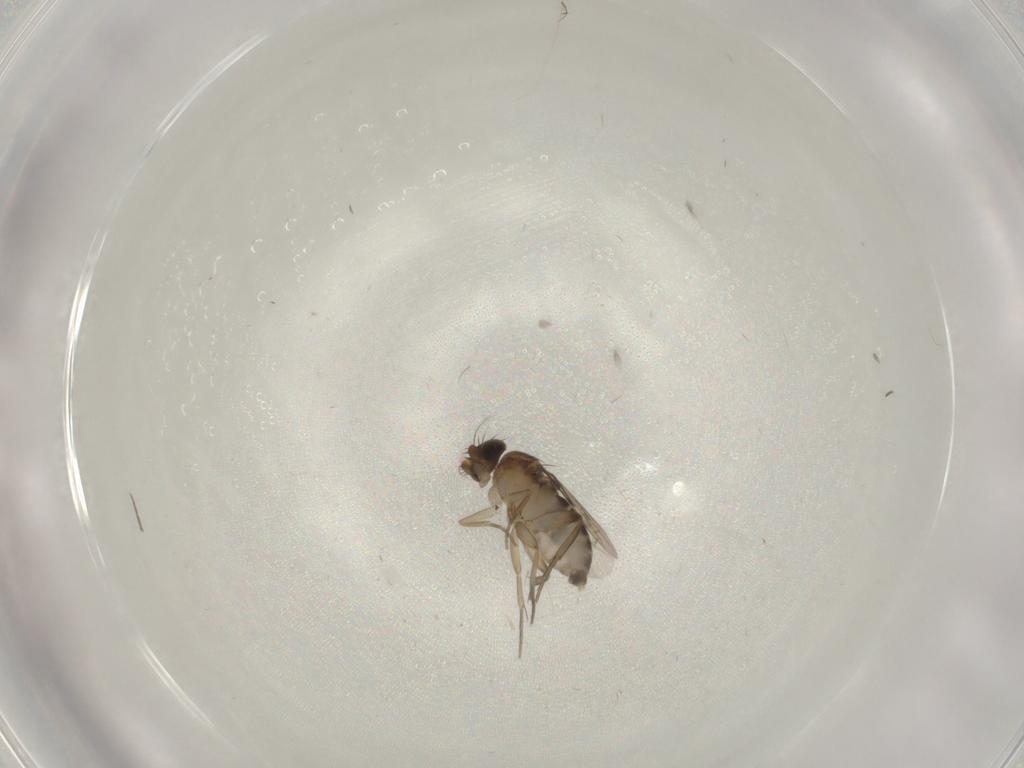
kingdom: Animalia
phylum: Arthropoda
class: Insecta
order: Diptera
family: Phoridae
